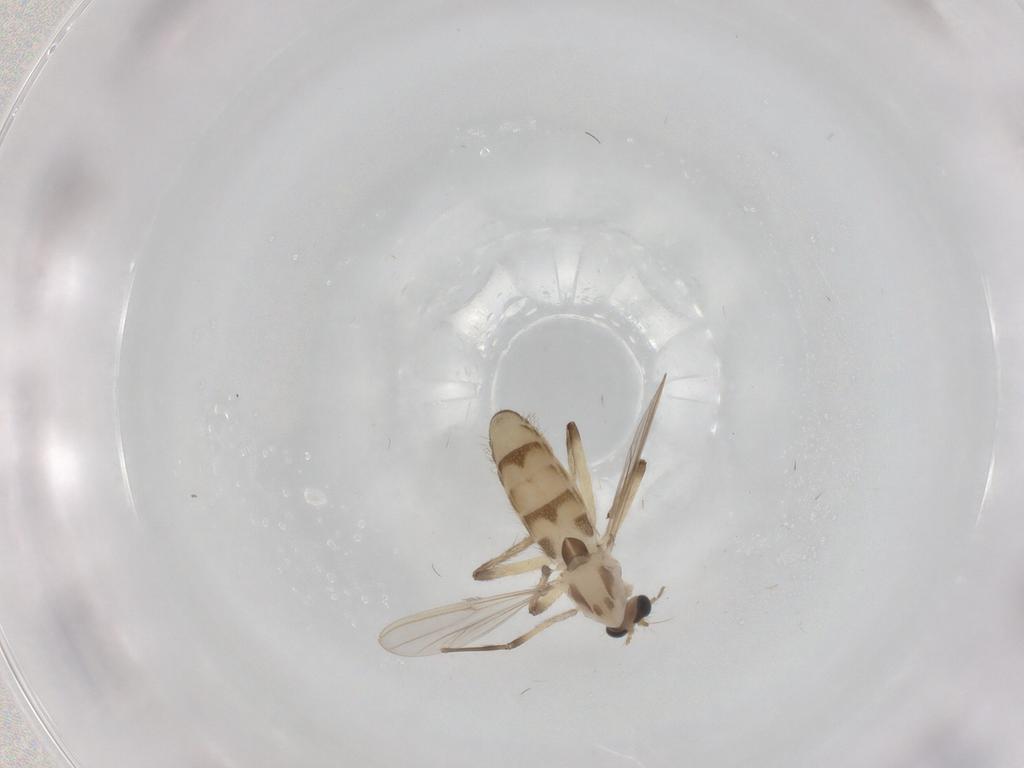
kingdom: Animalia
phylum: Arthropoda
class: Insecta
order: Diptera
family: Chironomidae
